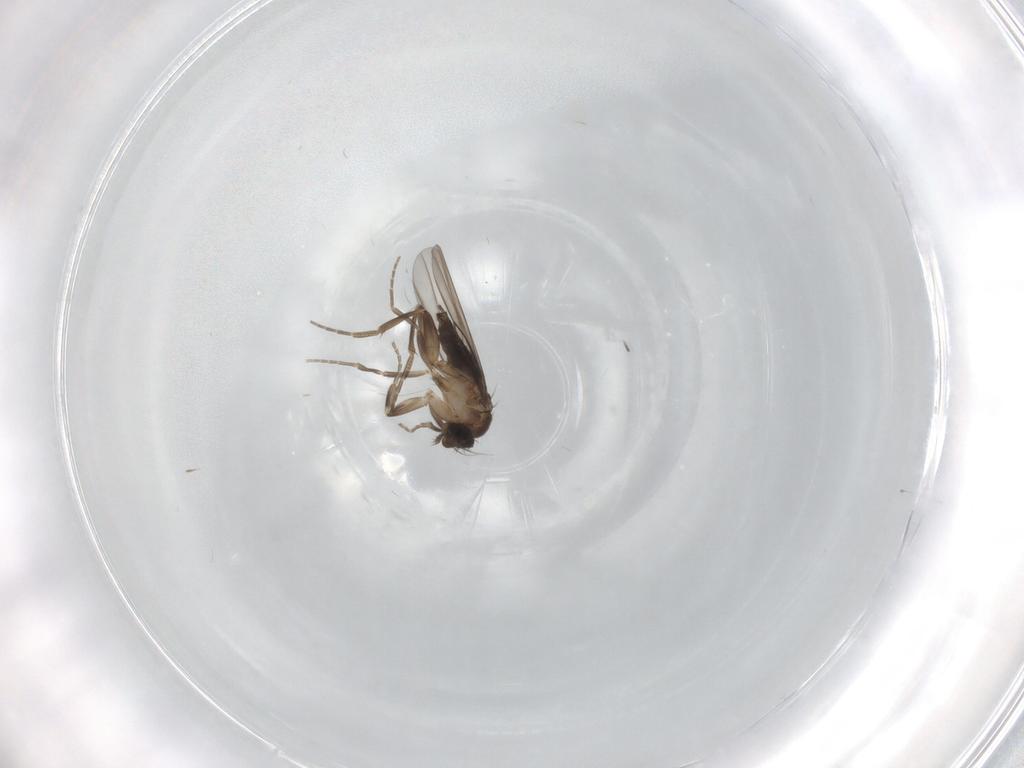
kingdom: Animalia
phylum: Arthropoda
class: Insecta
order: Diptera
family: Phoridae
